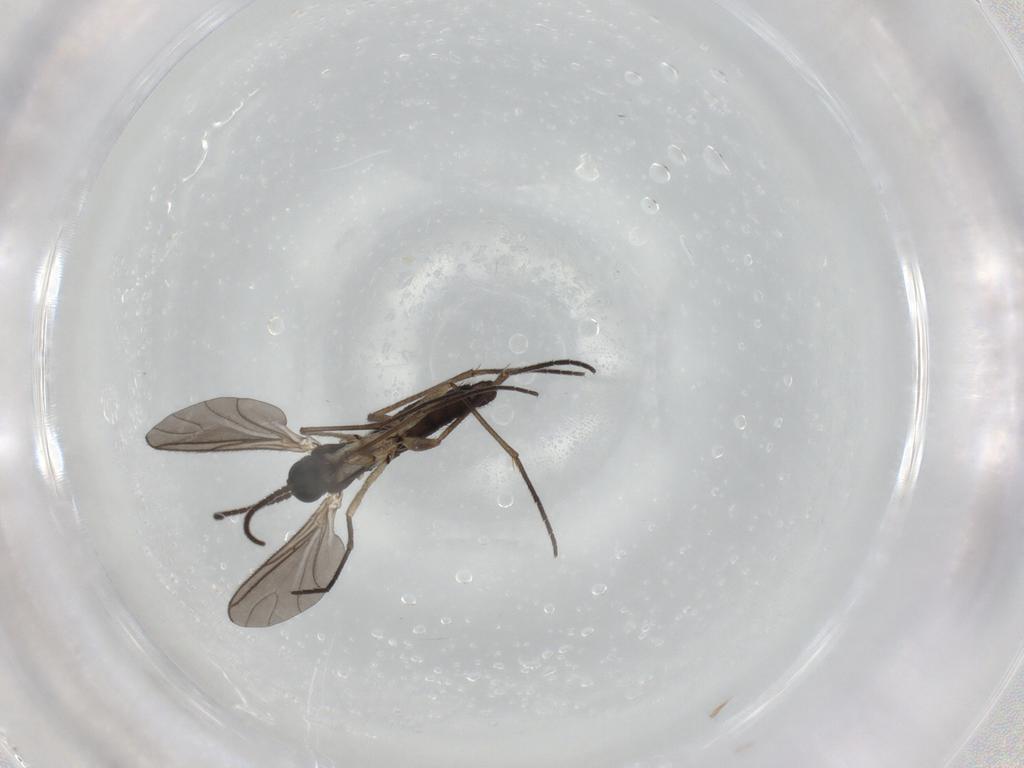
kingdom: Animalia
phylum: Arthropoda
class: Insecta
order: Diptera
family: Sciaridae
